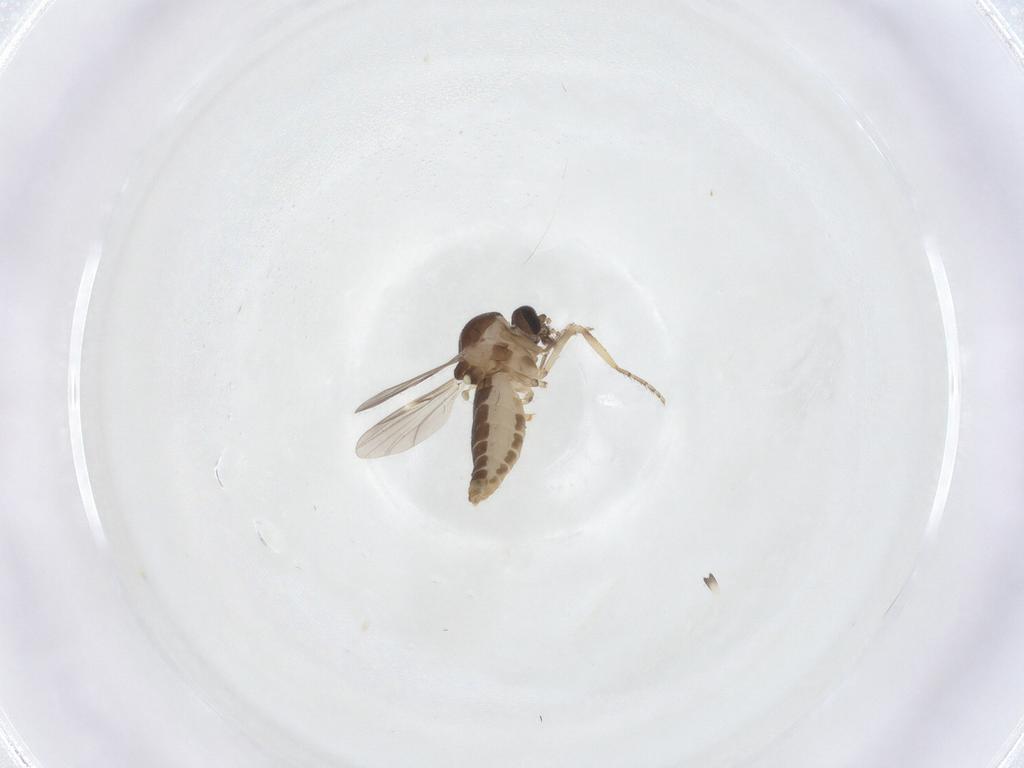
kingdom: Animalia
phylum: Arthropoda
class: Insecta
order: Diptera
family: Ceratopogonidae
